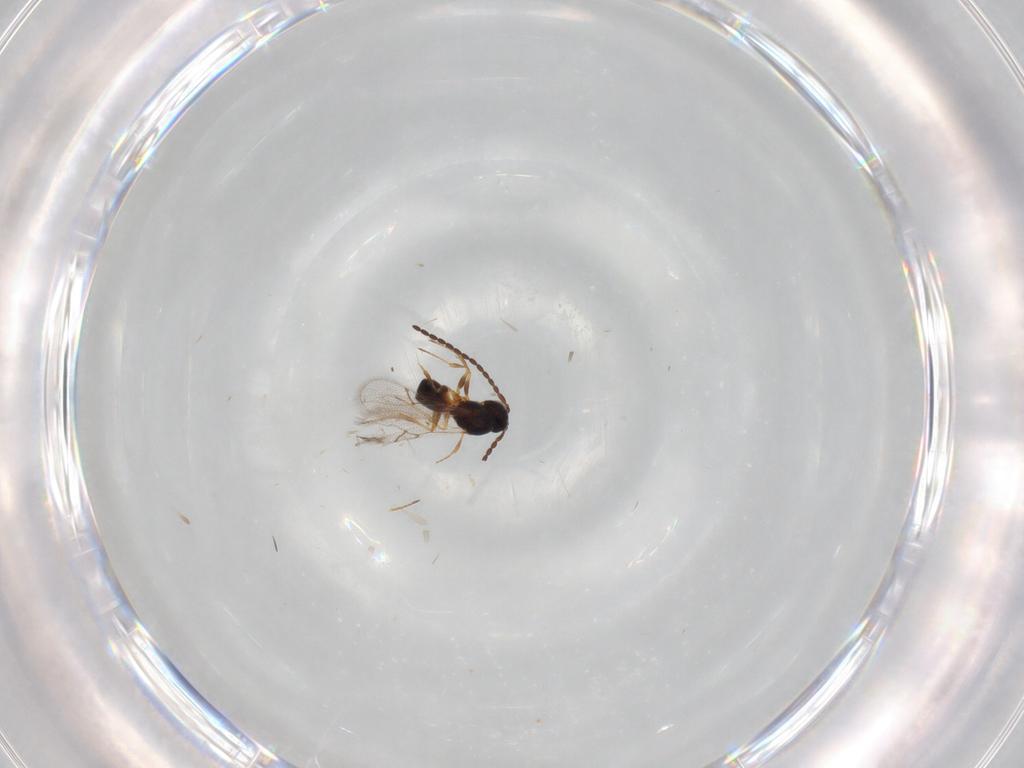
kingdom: Animalia
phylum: Arthropoda
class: Insecta
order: Hymenoptera
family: Figitidae
